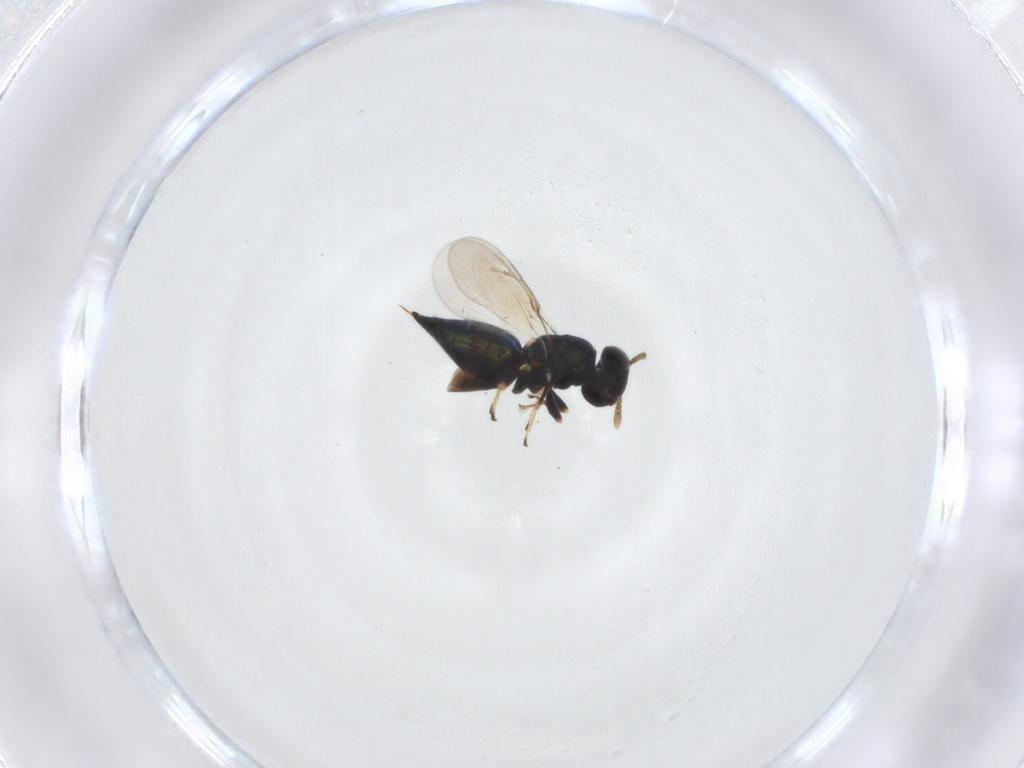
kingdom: Animalia
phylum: Arthropoda
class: Insecta
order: Hymenoptera
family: Pteromalidae
